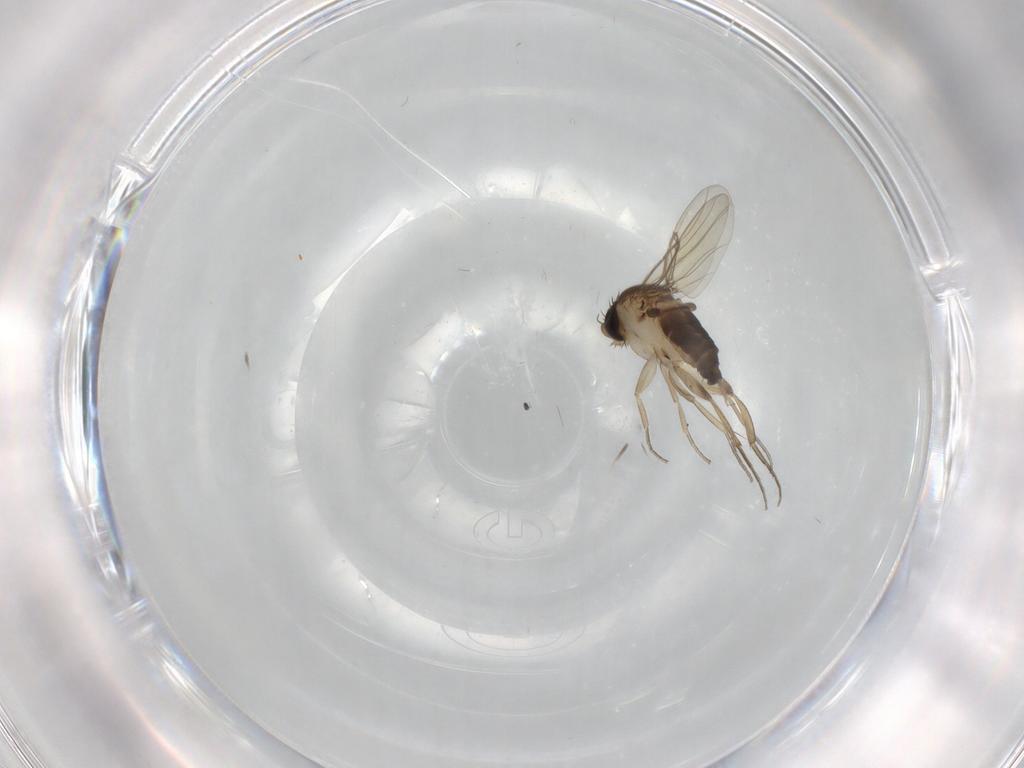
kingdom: Animalia
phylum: Arthropoda
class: Insecta
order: Diptera
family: Phoridae
